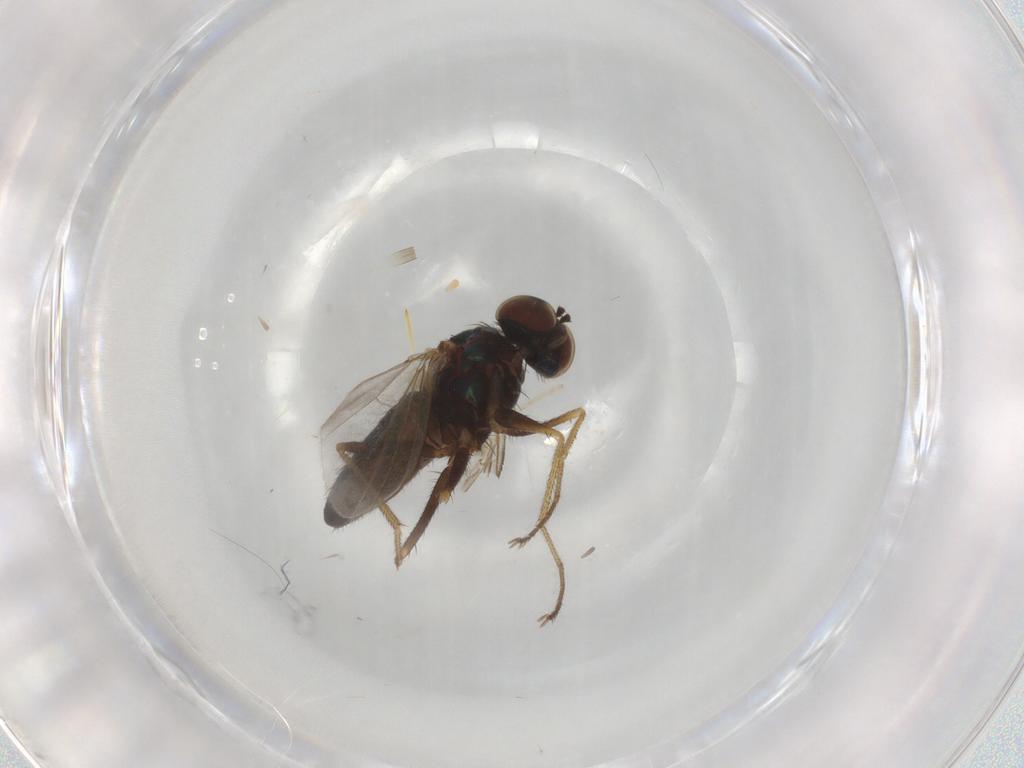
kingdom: Animalia
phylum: Arthropoda
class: Insecta
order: Diptera
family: Dolichopodidae
